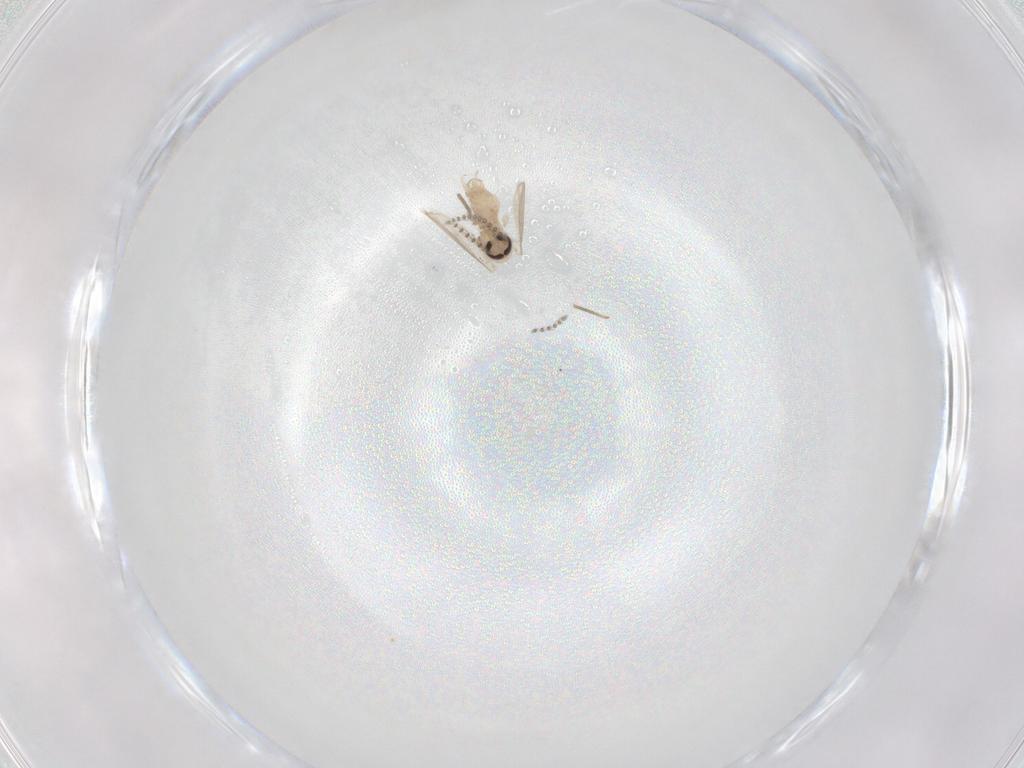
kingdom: Animalia
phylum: Arthropoda
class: Insecta
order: Diptera
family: Psychodidae
